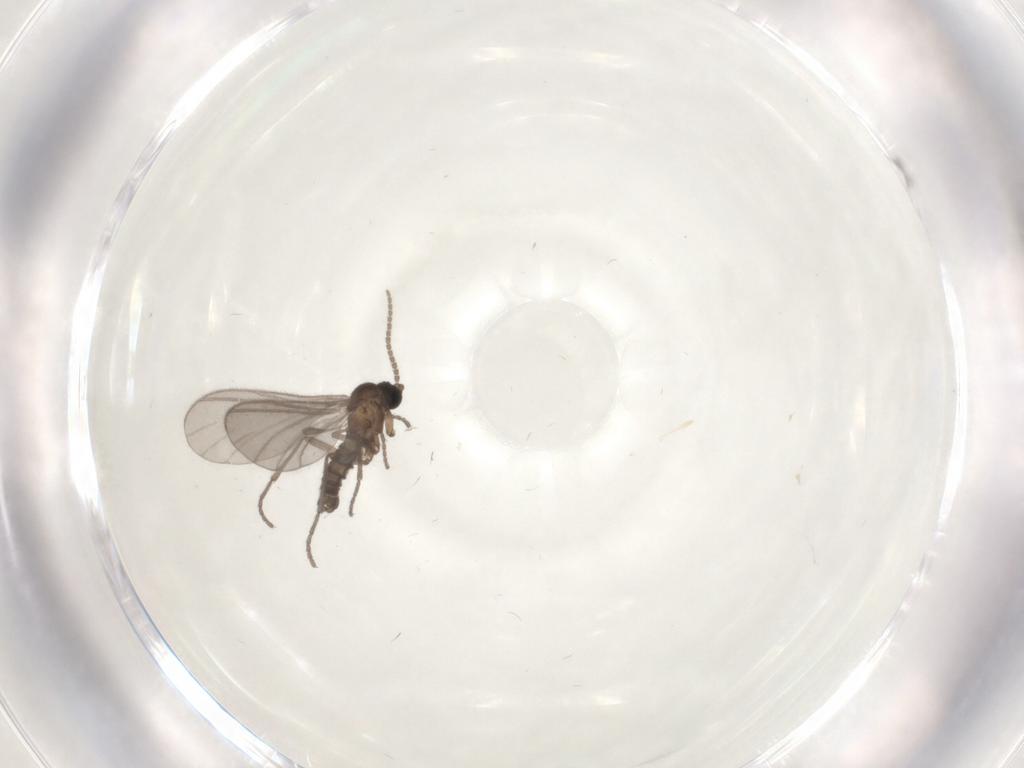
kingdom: Animalia
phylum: Arthropoda
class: Insecta
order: Diptera
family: Sciaridae
